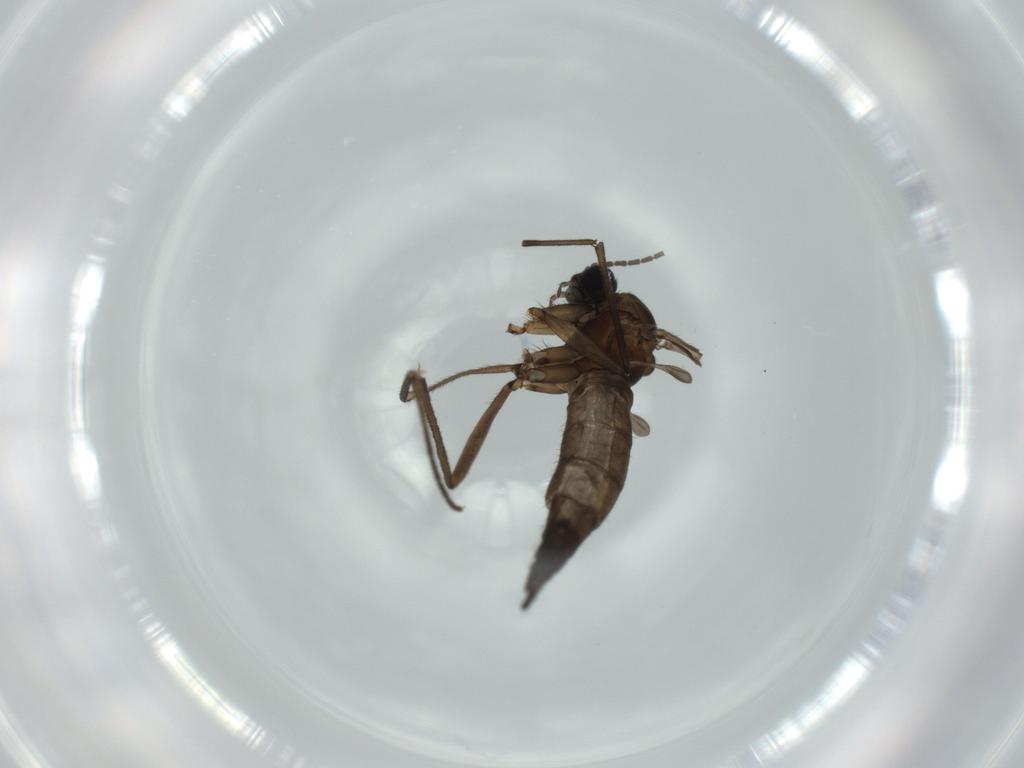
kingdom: Animalia
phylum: Arthropoda
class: Insecta
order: Diptera
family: Sciaridae
